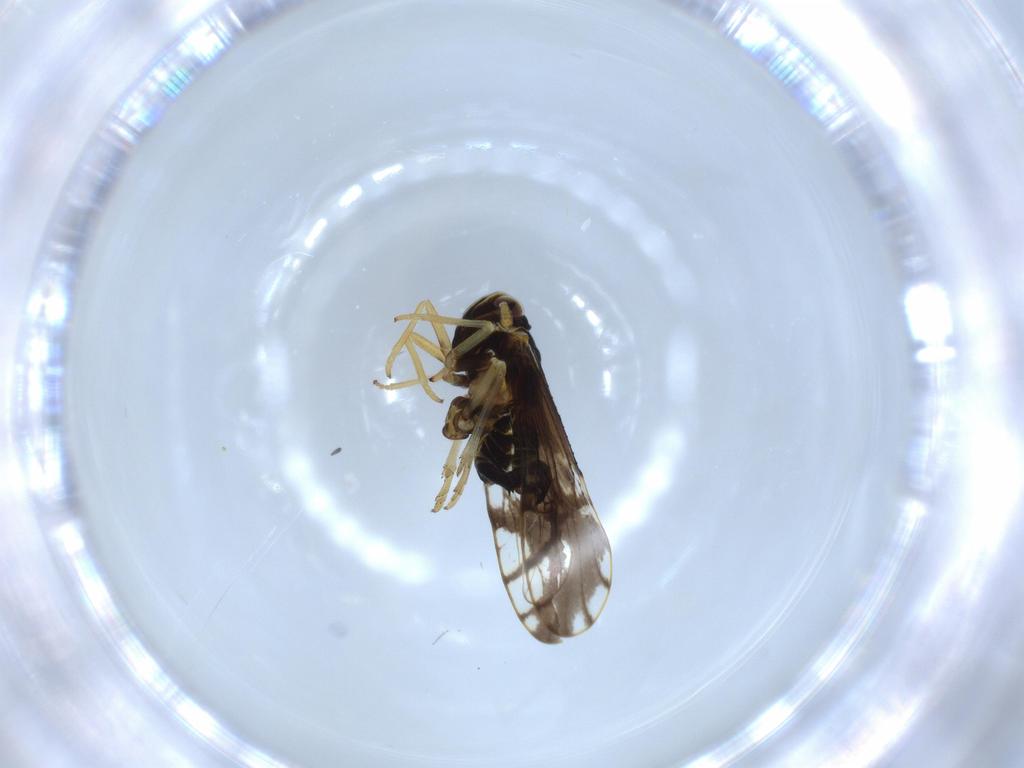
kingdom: Animalia
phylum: Arthropoda
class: Insecta
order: Hemiptera
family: Delphacidae
